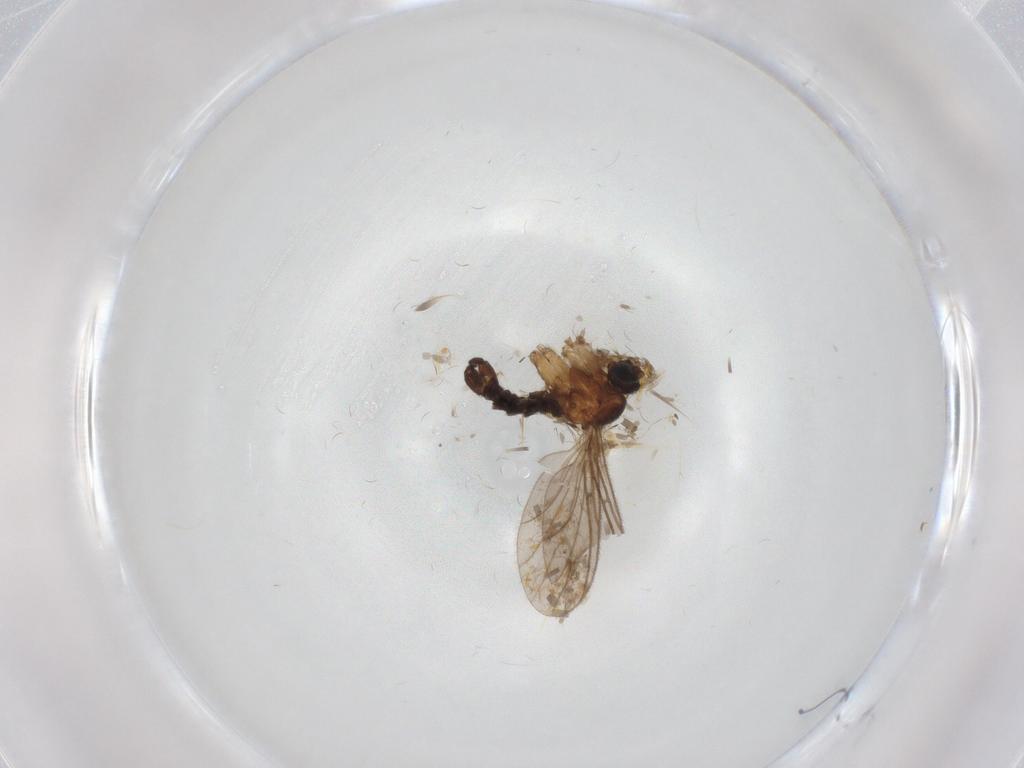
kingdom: Animalia
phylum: Arthropoda
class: Insecta
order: Diptera
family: Sciaridae
